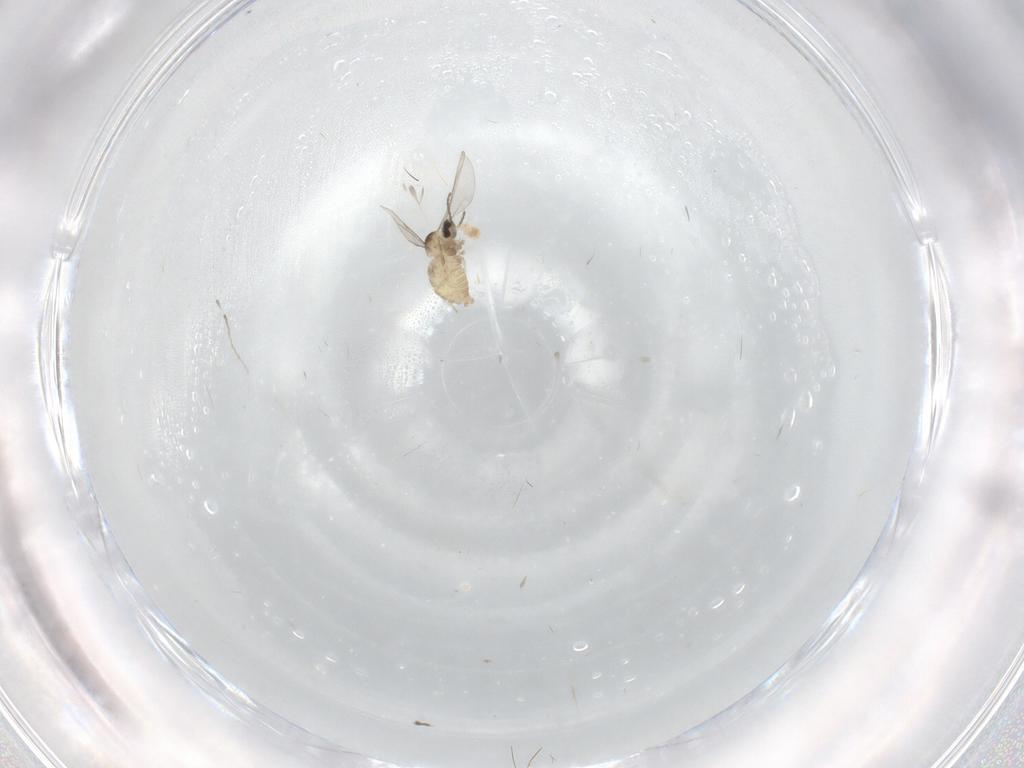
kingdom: Animalia
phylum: Arthropoda
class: Insecta
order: Diptera
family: Cecidomyiidae
